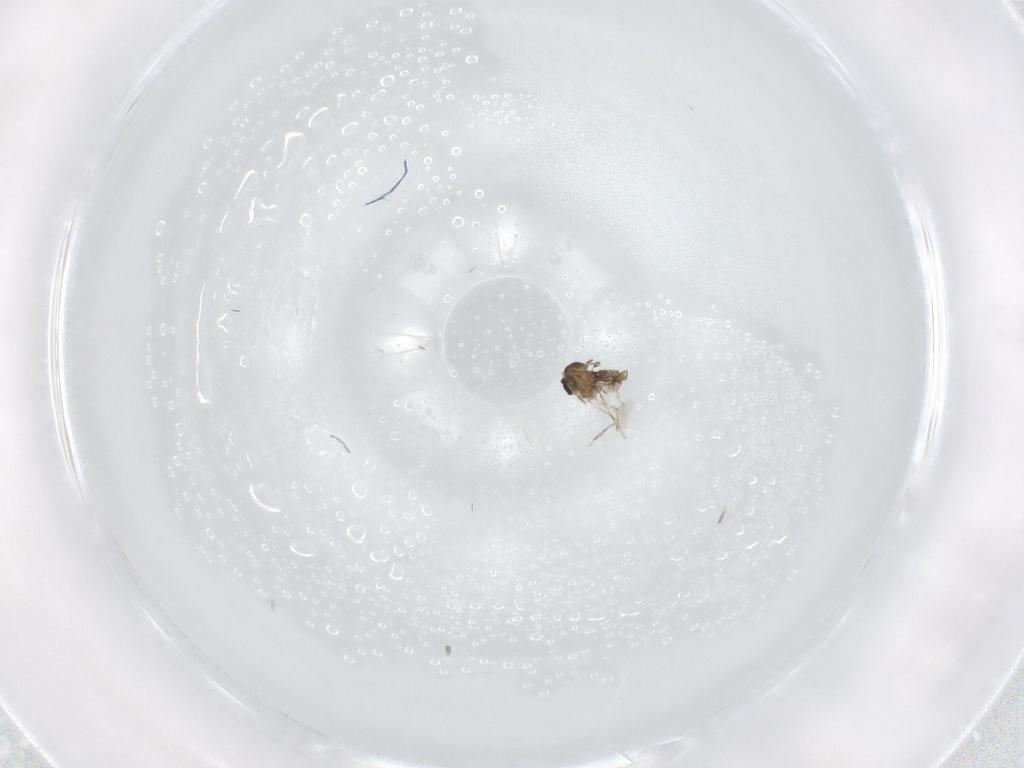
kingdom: Animalia
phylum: Arthropoda
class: Insecta
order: Diptera
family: Cecidomyiidae
